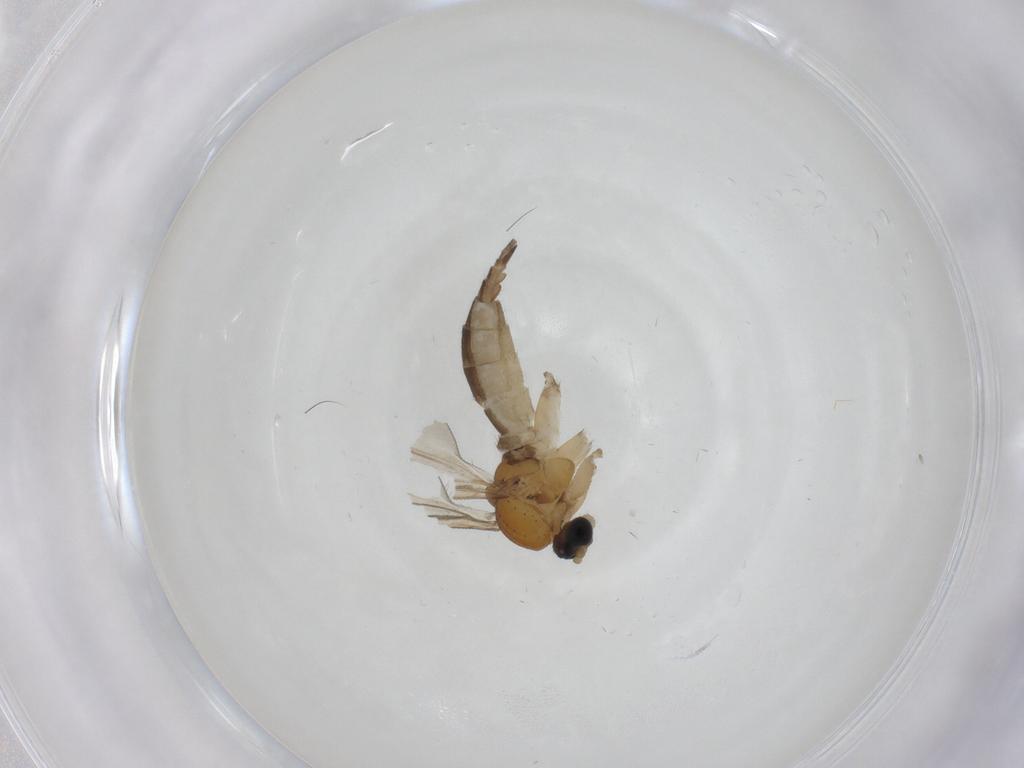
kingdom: Animalia
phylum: Arthropoda
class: Insecta
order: Diptera
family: Sciaridae
